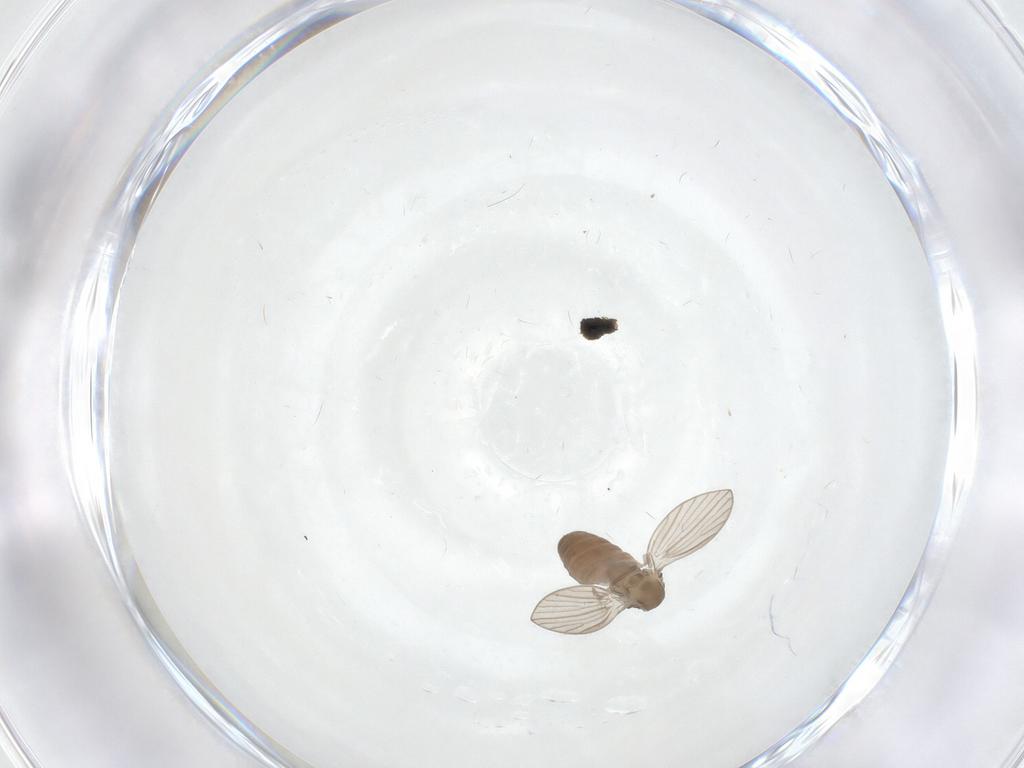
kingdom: Animalia
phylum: Arthropoda
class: Insecta
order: Diptera
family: Psychodidae
